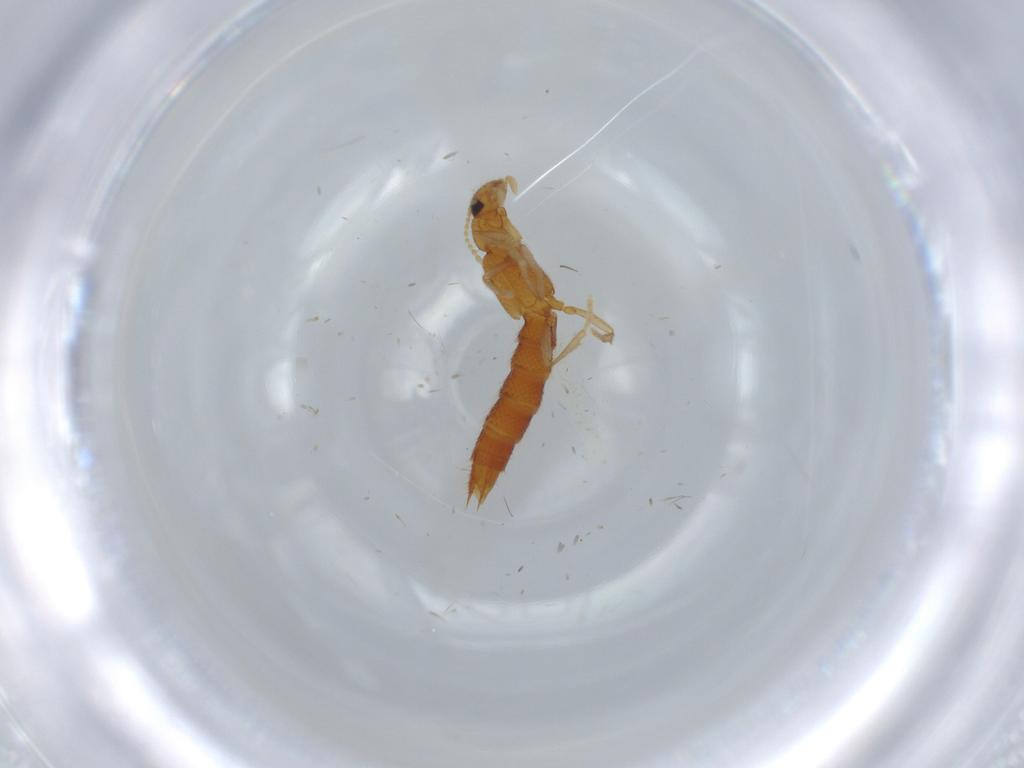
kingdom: Animalia
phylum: Arthropoda
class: Insecta
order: Coleoptera
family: Staphylinidae
